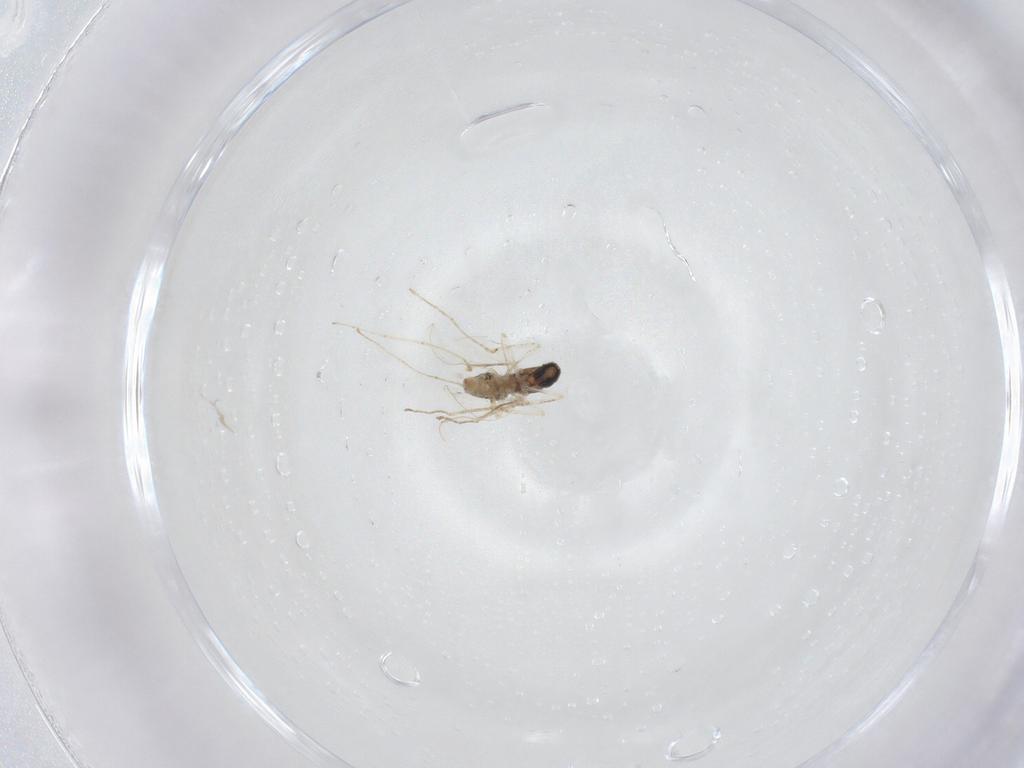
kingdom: Animalia
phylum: Arthropoda
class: Insecta
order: Diptera
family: Cecidomyiidae
